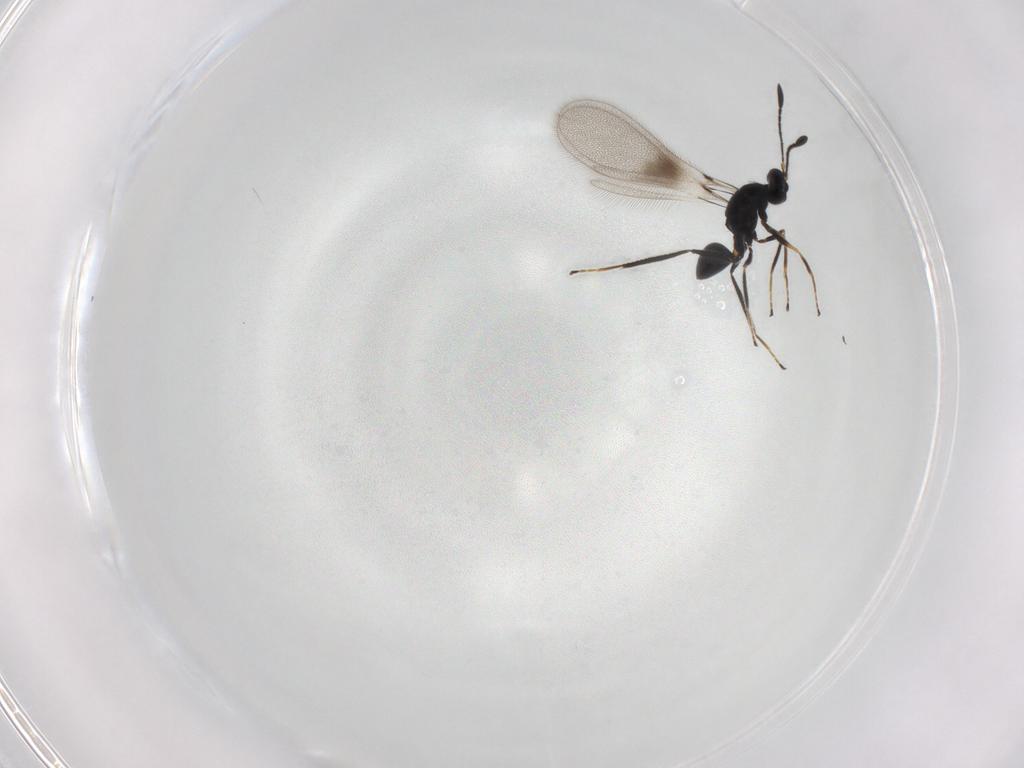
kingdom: Animalia
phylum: Arthropoda
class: Insecta
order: Hymenoptera
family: Mymaridae
